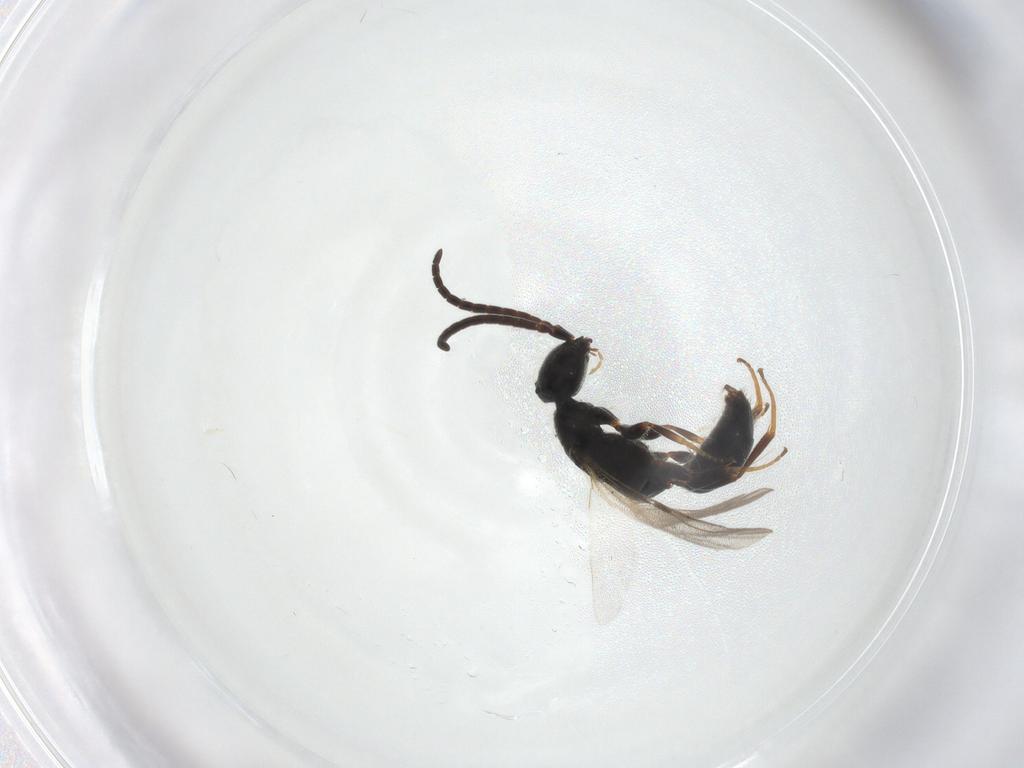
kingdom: Animalia
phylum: Arthropoda
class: Insecta
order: Hymenoptera
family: Bethylidae
